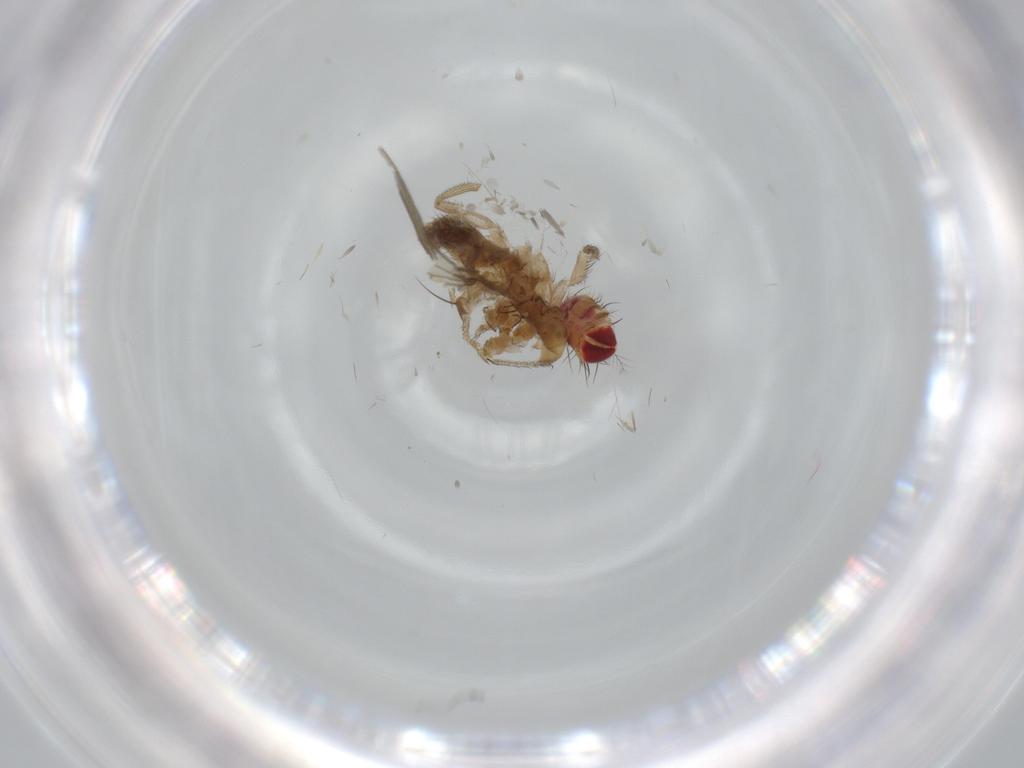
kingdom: Animalia
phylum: Arthropoda
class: Insecta
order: Diptera
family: Drosophilidae
